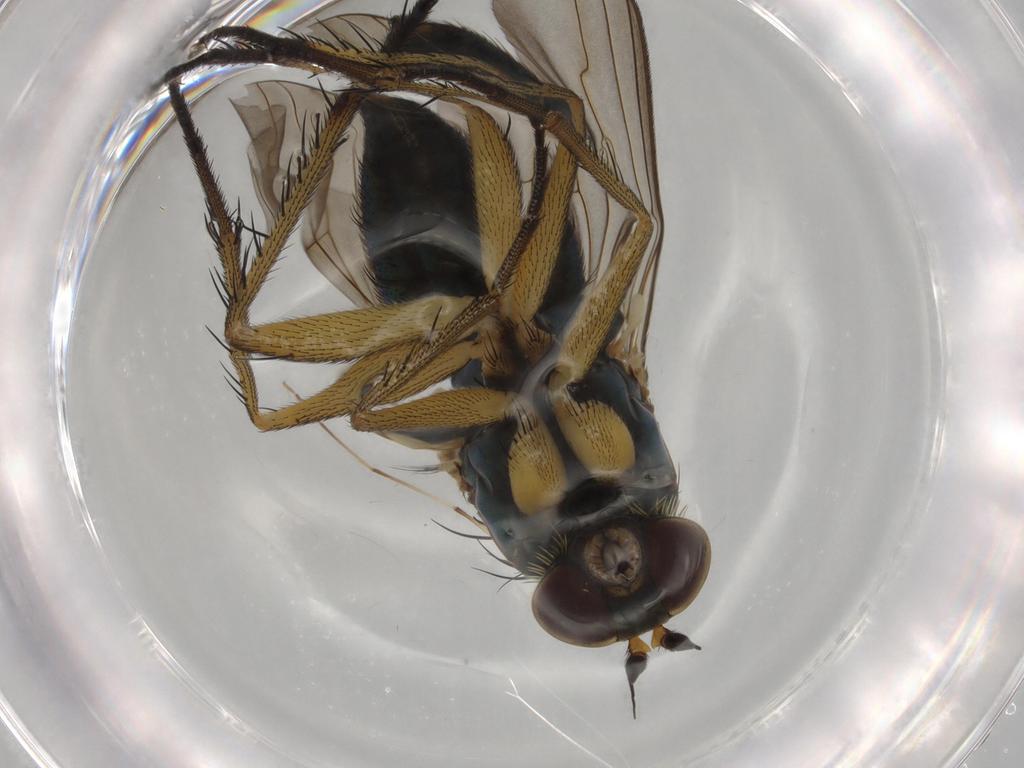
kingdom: Animalia
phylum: Arthropoda
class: Insecta
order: Diptera
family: Dolichopodidae
